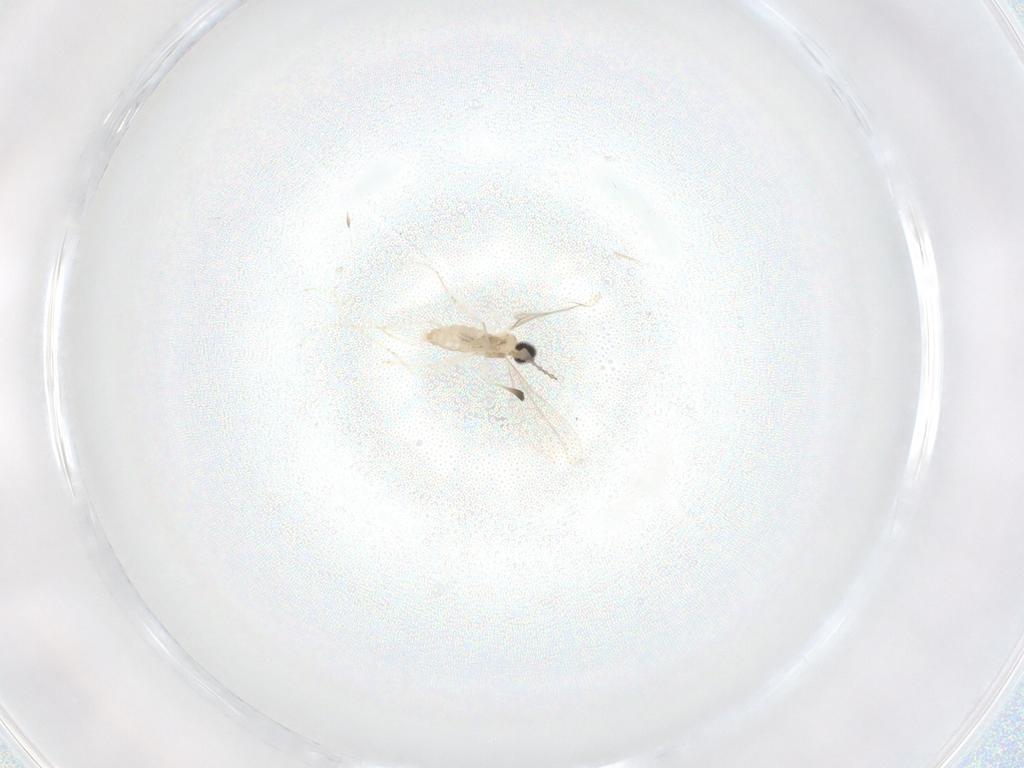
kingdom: Animalia
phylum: Arthropoda
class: Insecta
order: Diptera
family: Cecidomyiidae
